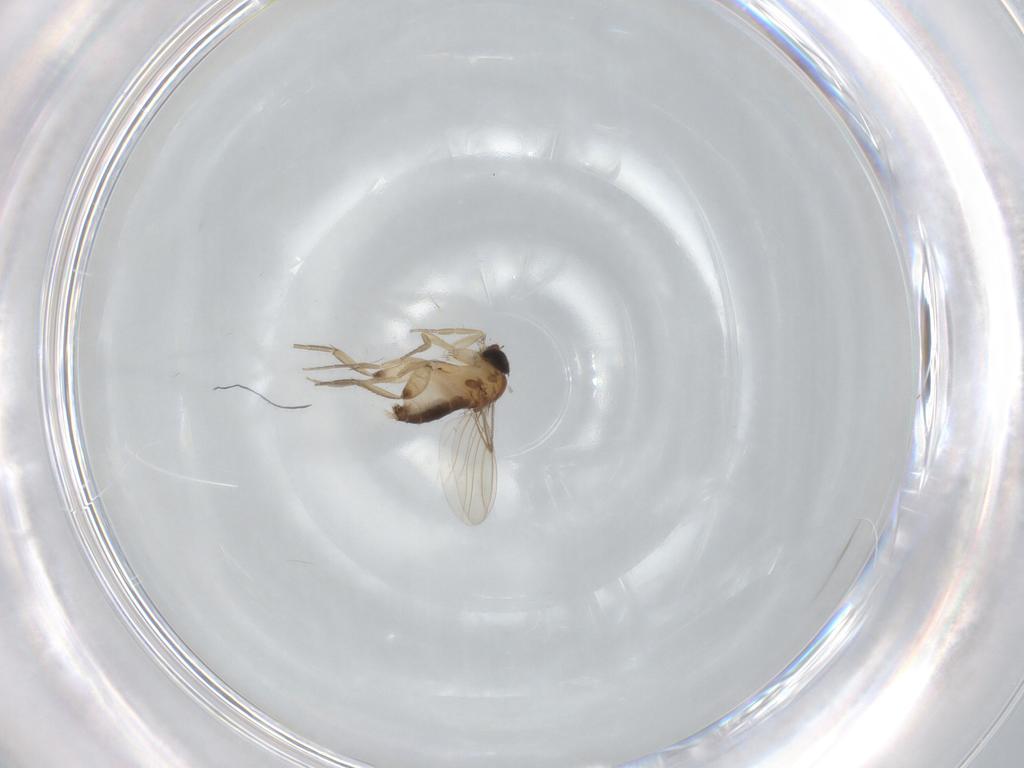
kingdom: Animalia
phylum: Arthropoda
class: Insecta
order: Diptera
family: Phoridae
